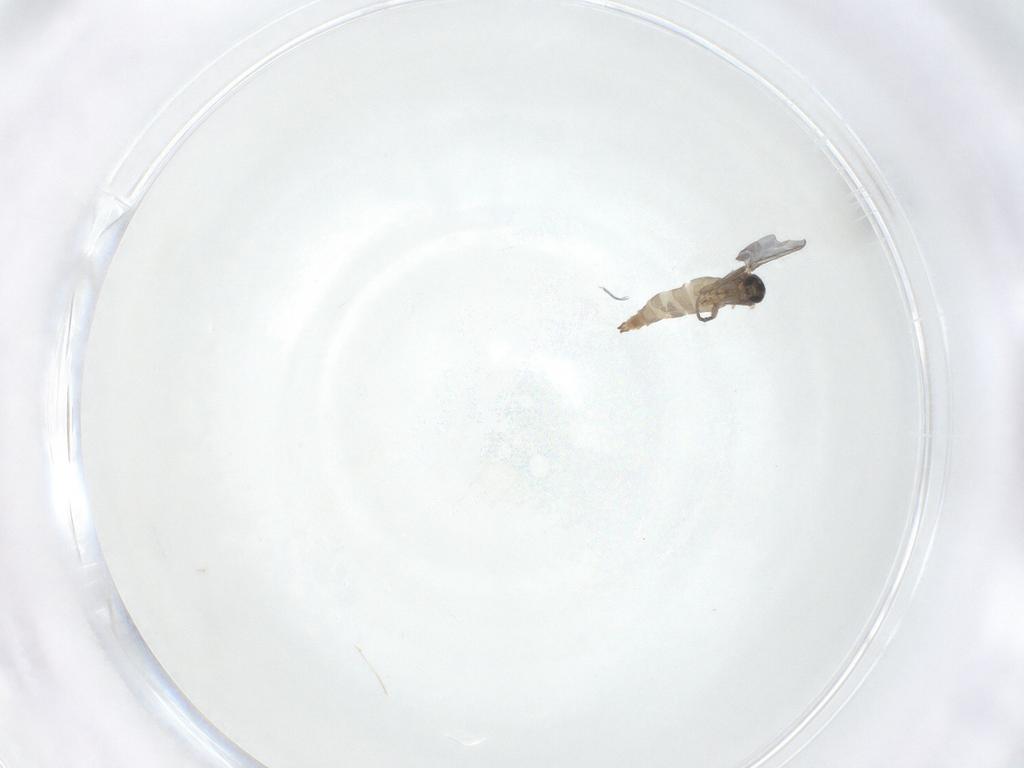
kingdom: Animalia
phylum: Arthropoda
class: Insecta
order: Diptera
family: Sciaridae
